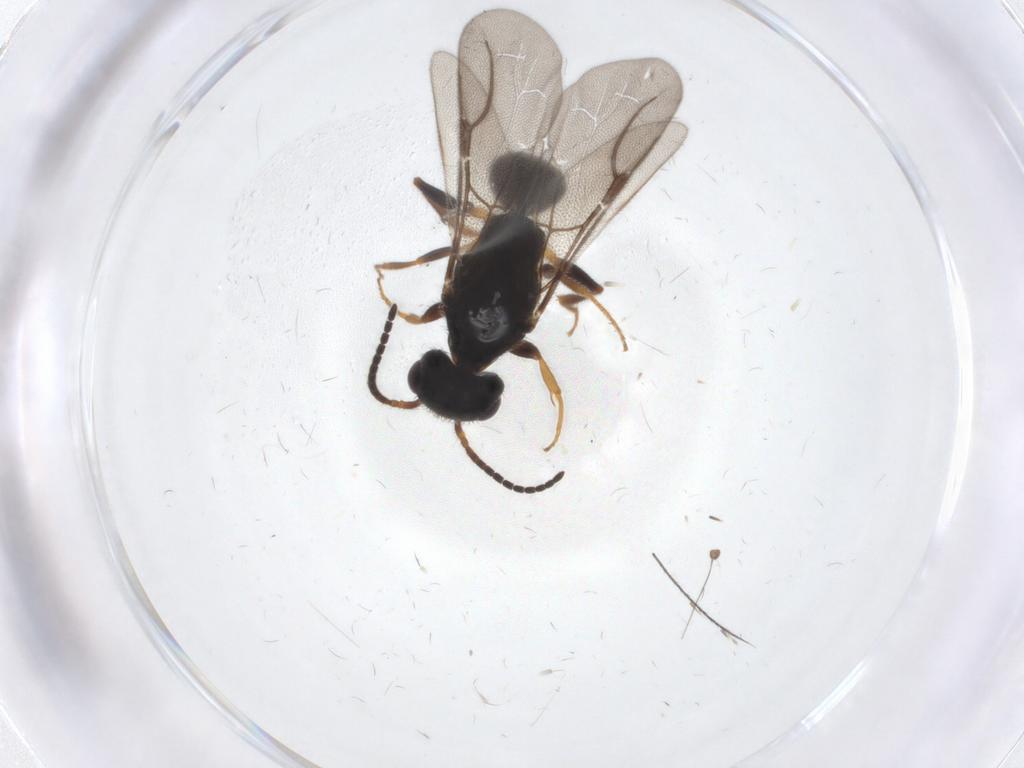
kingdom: Animalia
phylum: Arthropoda
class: Insecta
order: Hymenoptera
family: Bethylidae
